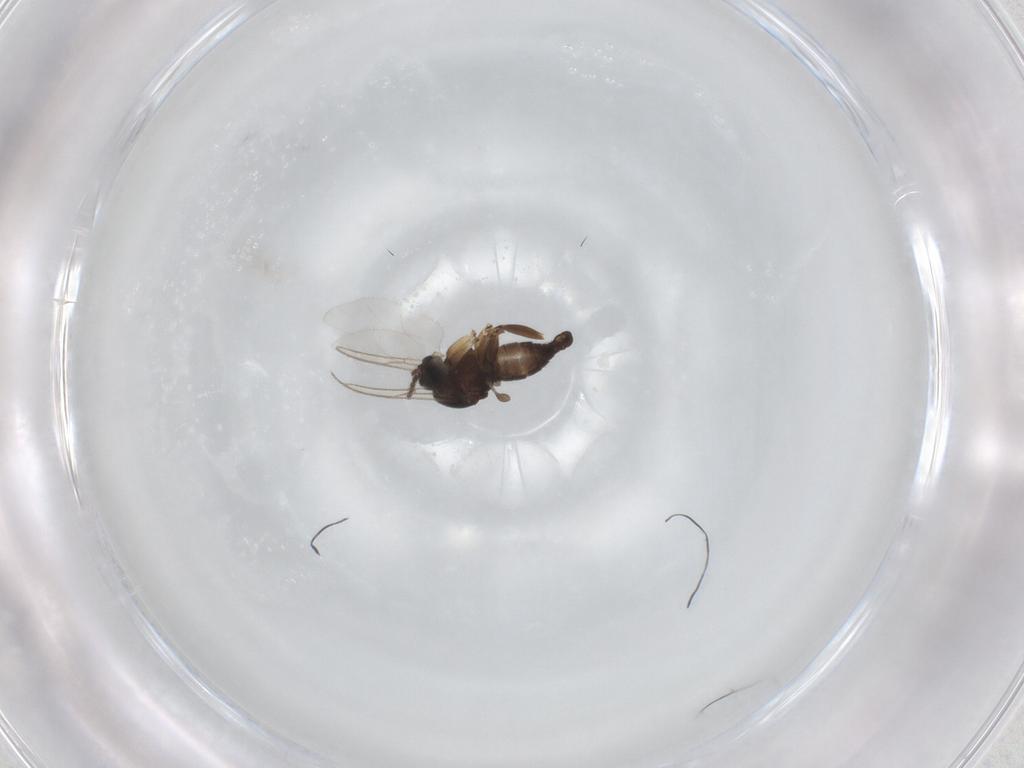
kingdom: Animalia
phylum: Arthropoda
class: Insecta
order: Diptera
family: Sciaridae
